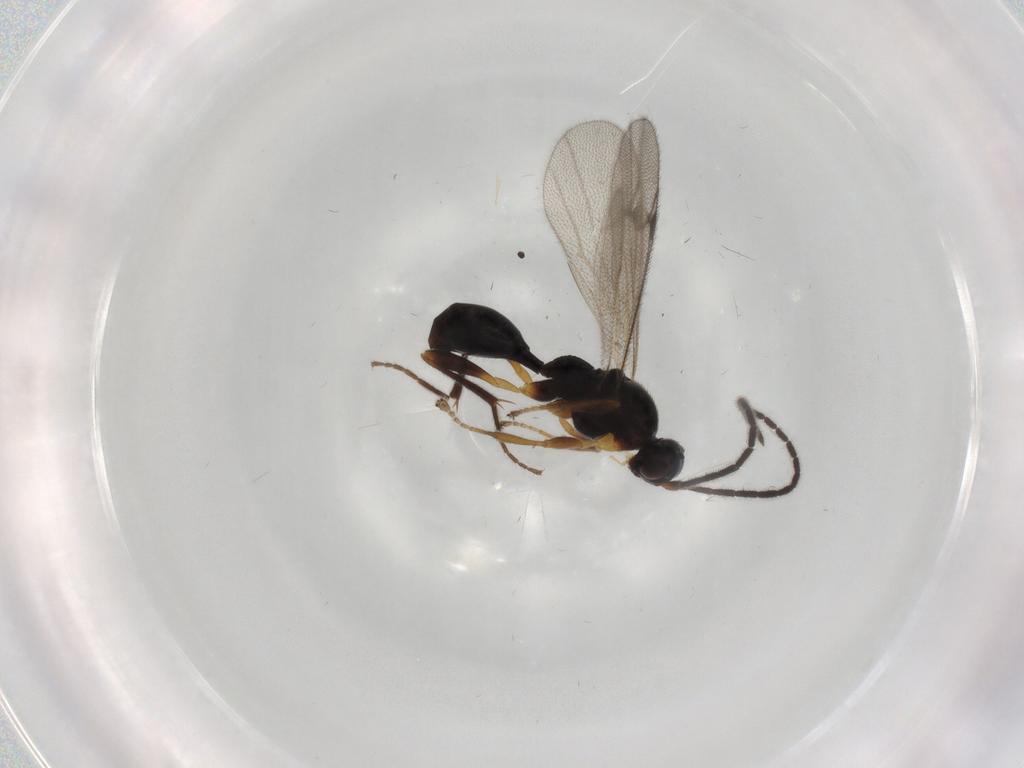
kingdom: Animalia
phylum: Arthropoda
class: Insecta
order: Hymenoptera
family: Proctotrupidae
